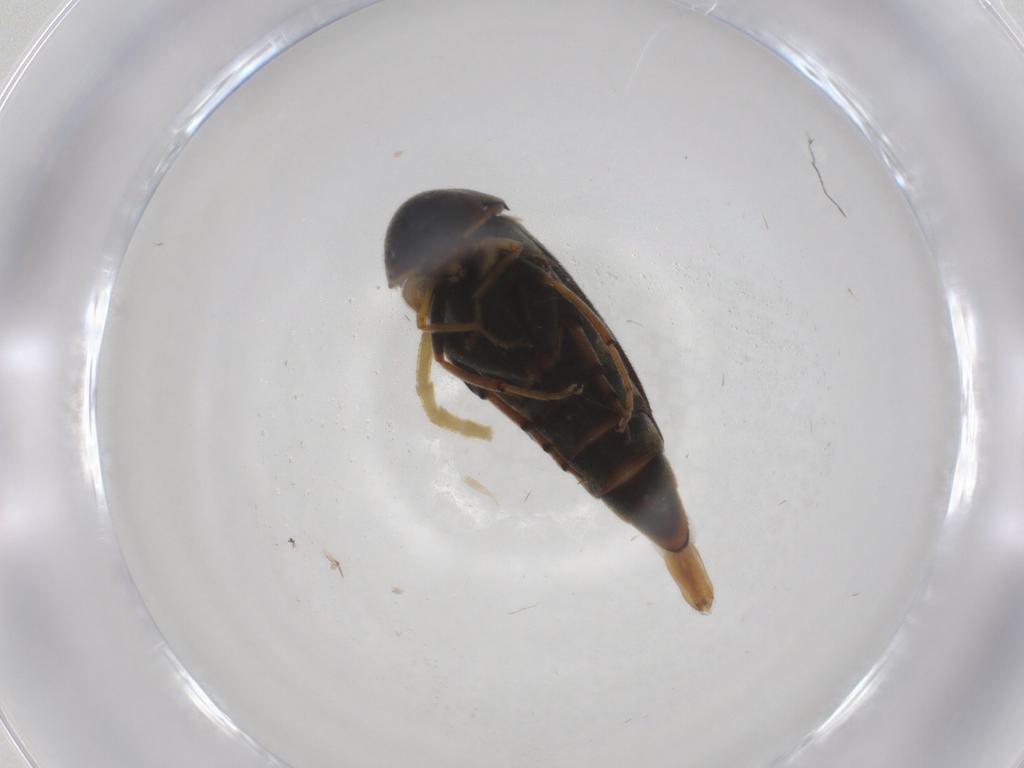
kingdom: Animalia
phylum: Arthropoda
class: Insecta
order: Coleoptera
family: Mordellidae
